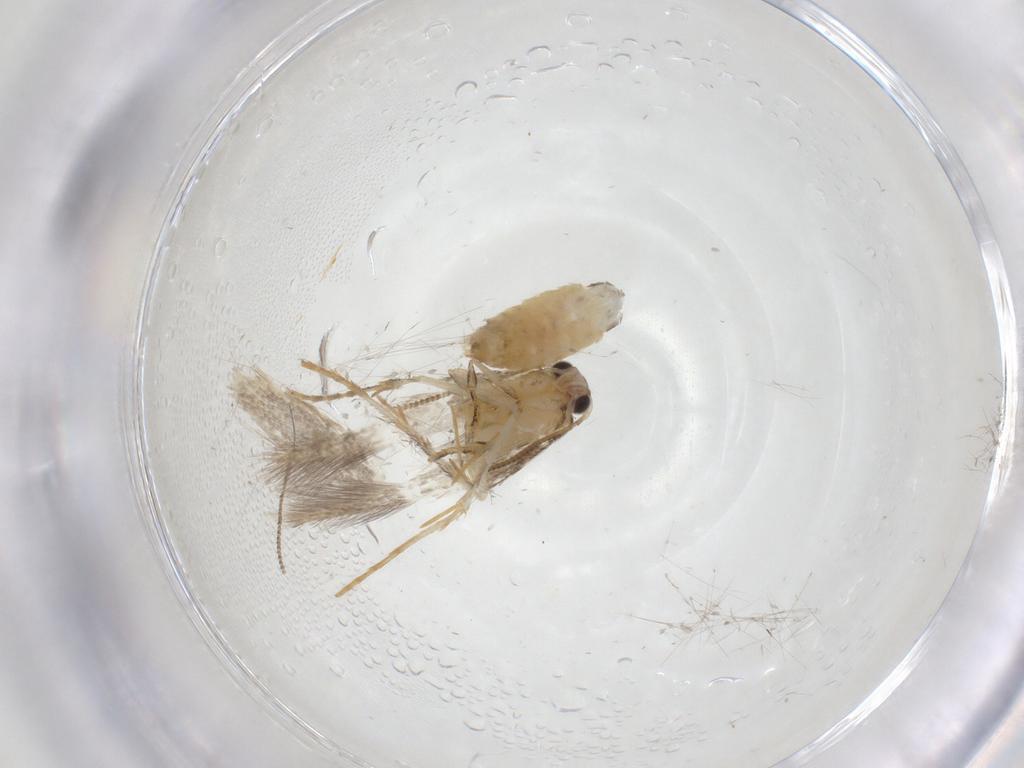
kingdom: Animalia
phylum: Arthropoda
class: Insecta
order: Lepidoptera
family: Tineidae
